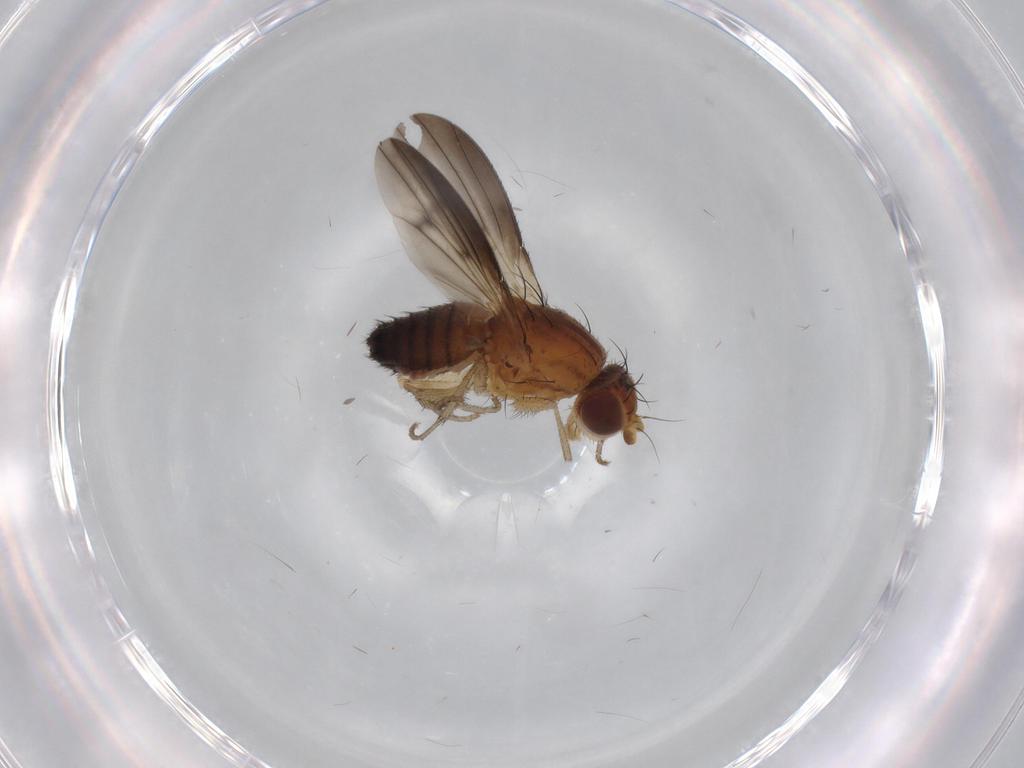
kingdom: Animalia
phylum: Arthropoda
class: Insecta
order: Diptera
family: Heleomyzidae
